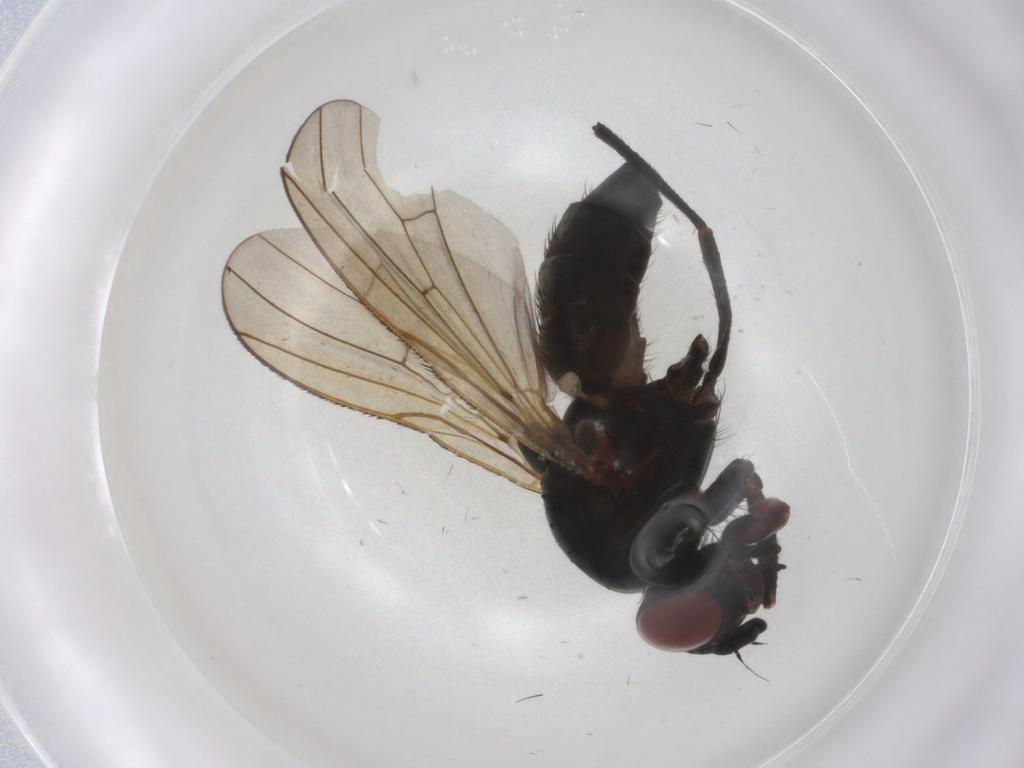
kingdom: Animalia
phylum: Arthropoda
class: Insecta
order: Diptera
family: Anthomyiidae
